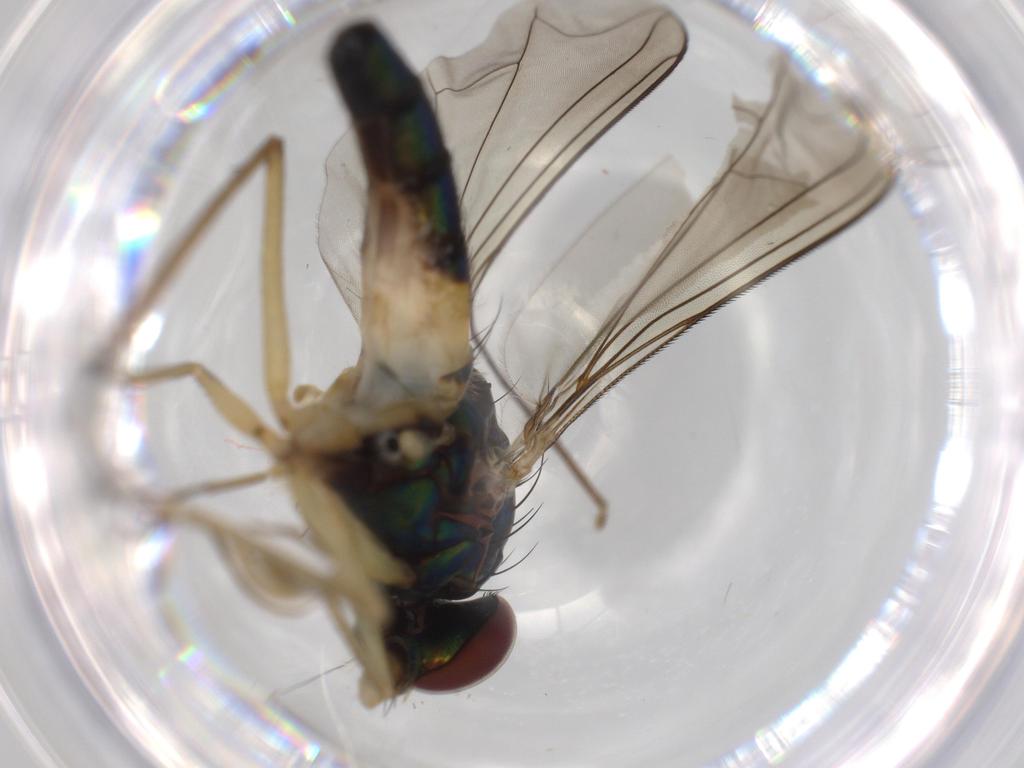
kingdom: Animalia
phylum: Arthropoda
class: Insecta
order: Diptera
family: Dolichopodidae
